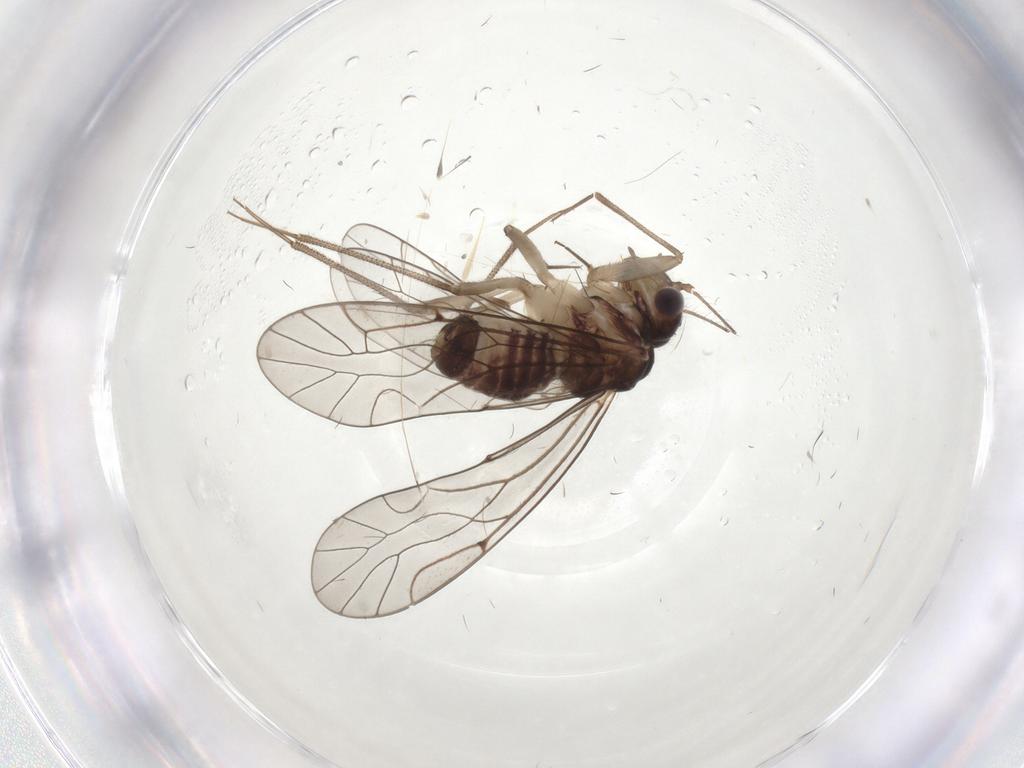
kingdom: Animalia
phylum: Arthropoda
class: Insecta
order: Psocodea
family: Lachesillidae
